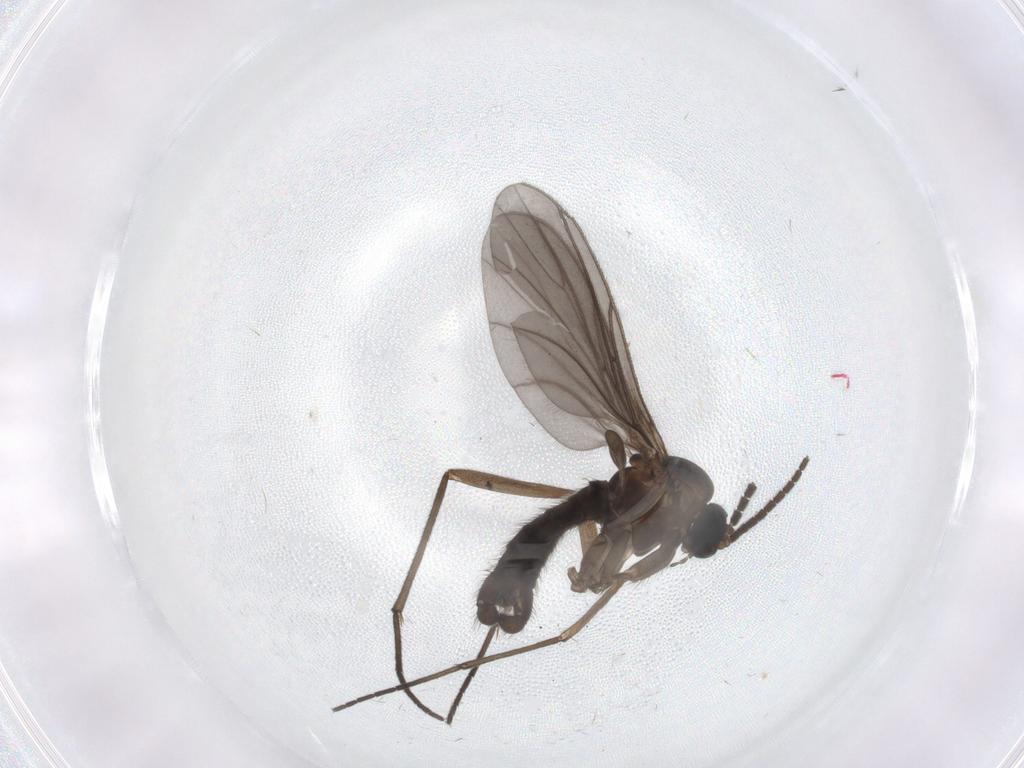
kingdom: Animalia
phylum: Arthropoda
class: Insecta
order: Diptera
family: Sciaridae
